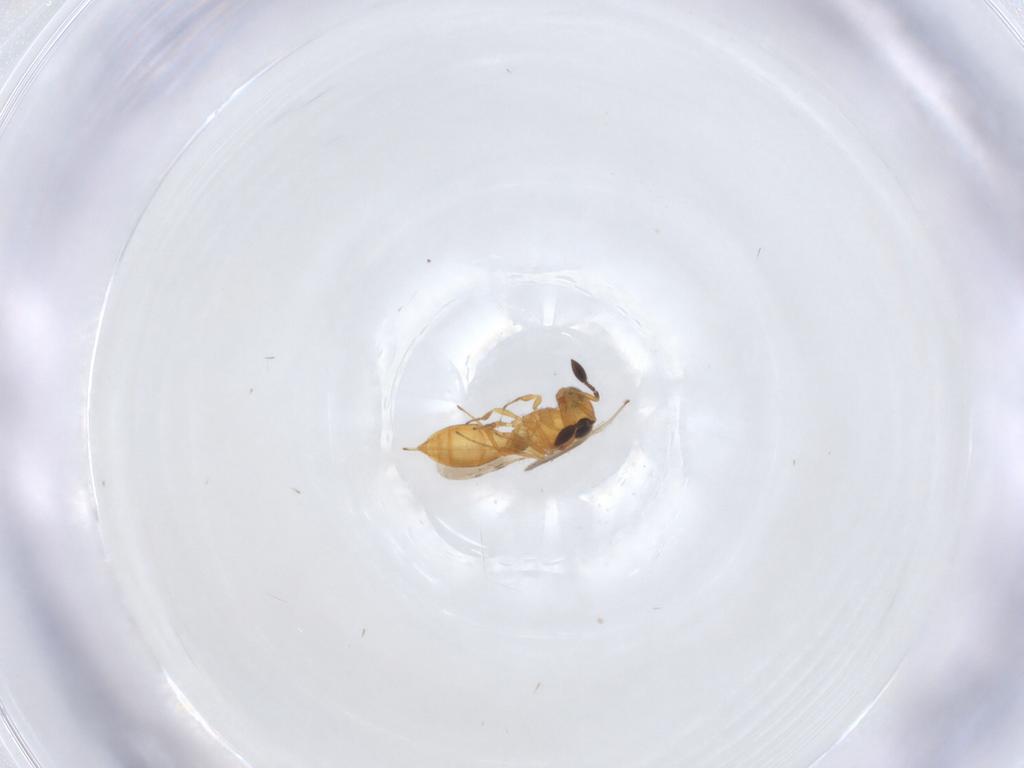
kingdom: Animalia
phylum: Arthropoda
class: Insecta
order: Hymenoptera
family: Scelionidae
